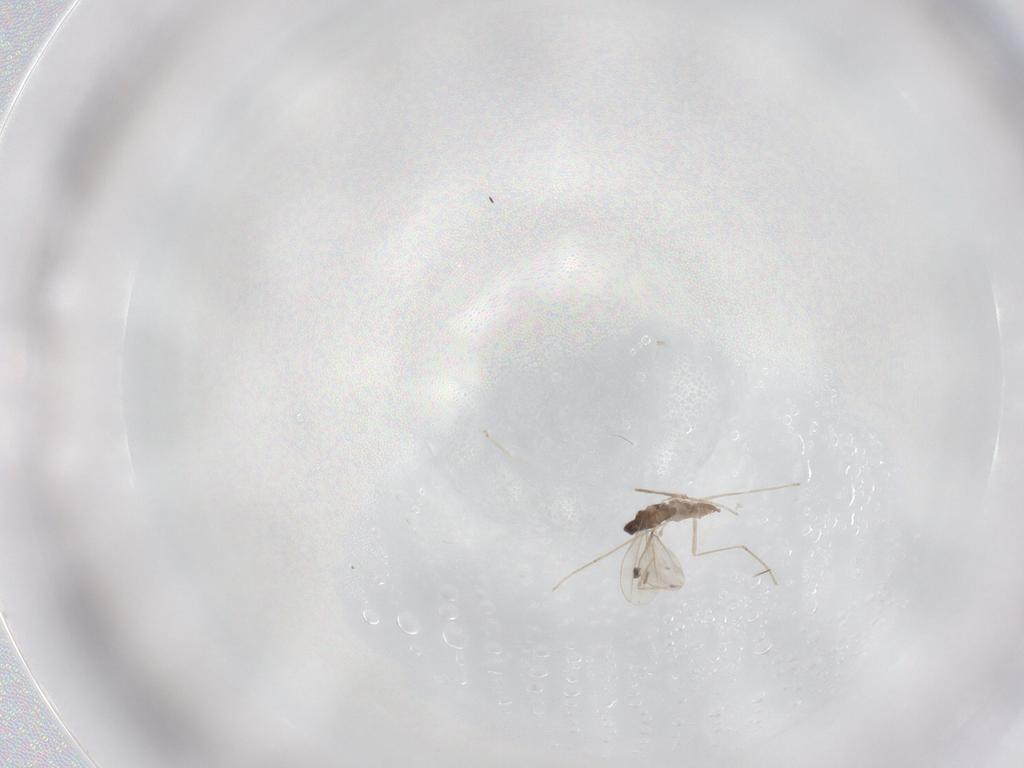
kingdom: Animalia
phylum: Arthropoda
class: Insecta
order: Diptera
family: Cecidomyiidae
